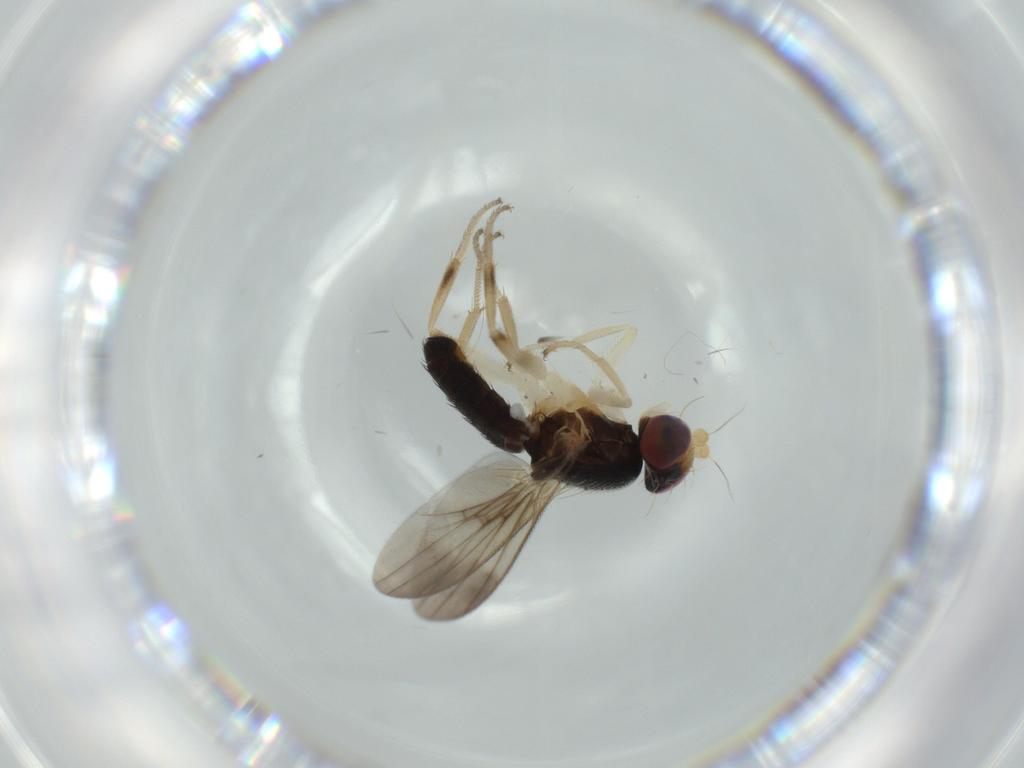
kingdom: Animalia
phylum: Arthropoda
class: Insecta
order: Diptera
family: Clusiidae
